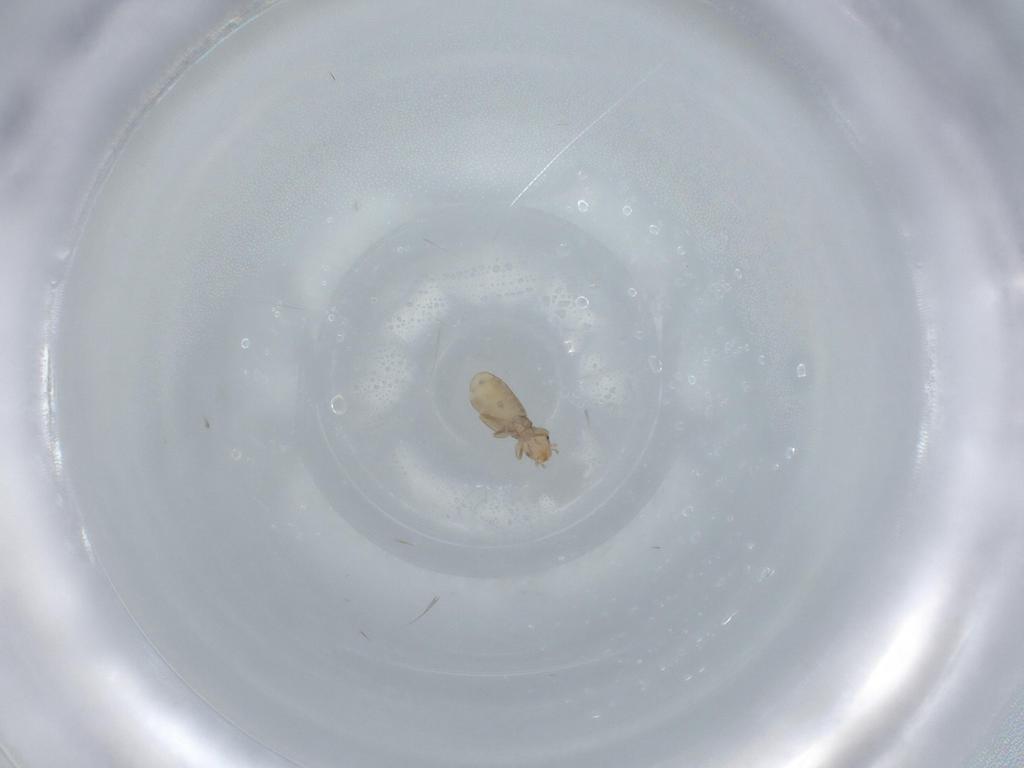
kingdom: Animalia
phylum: Arthropoda
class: Insecta
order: Psocodea
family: Liposcelididae
